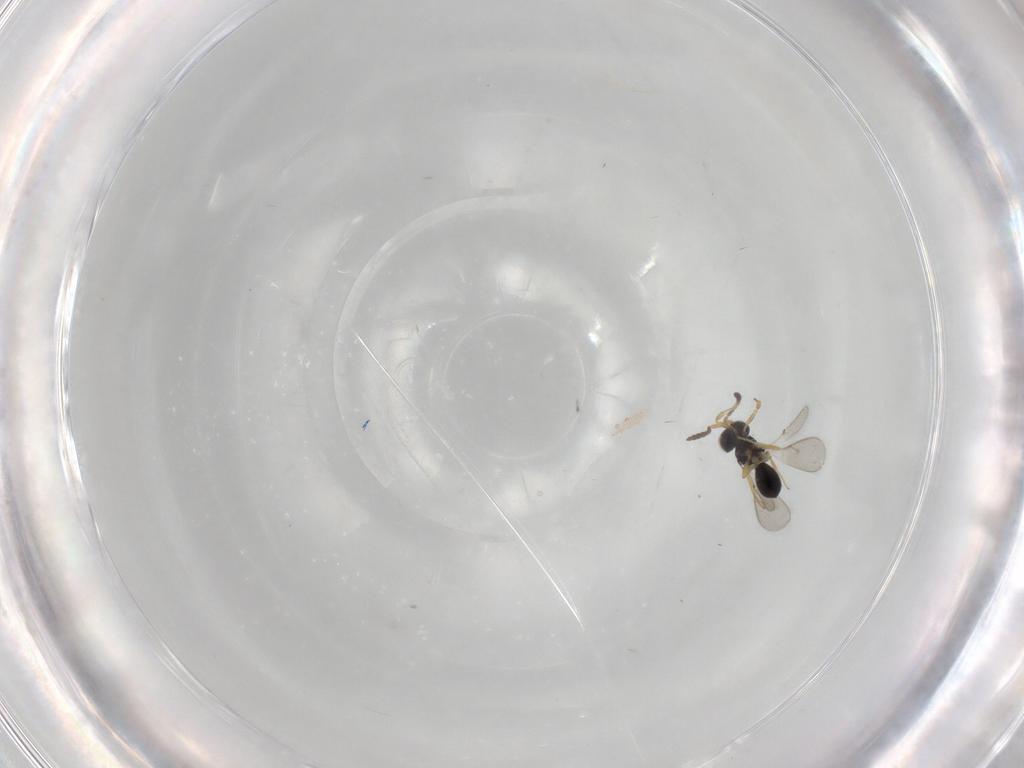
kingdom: Animalia
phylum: Arthropoda
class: Insecta
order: Hymenoptera
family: Scelionidae
